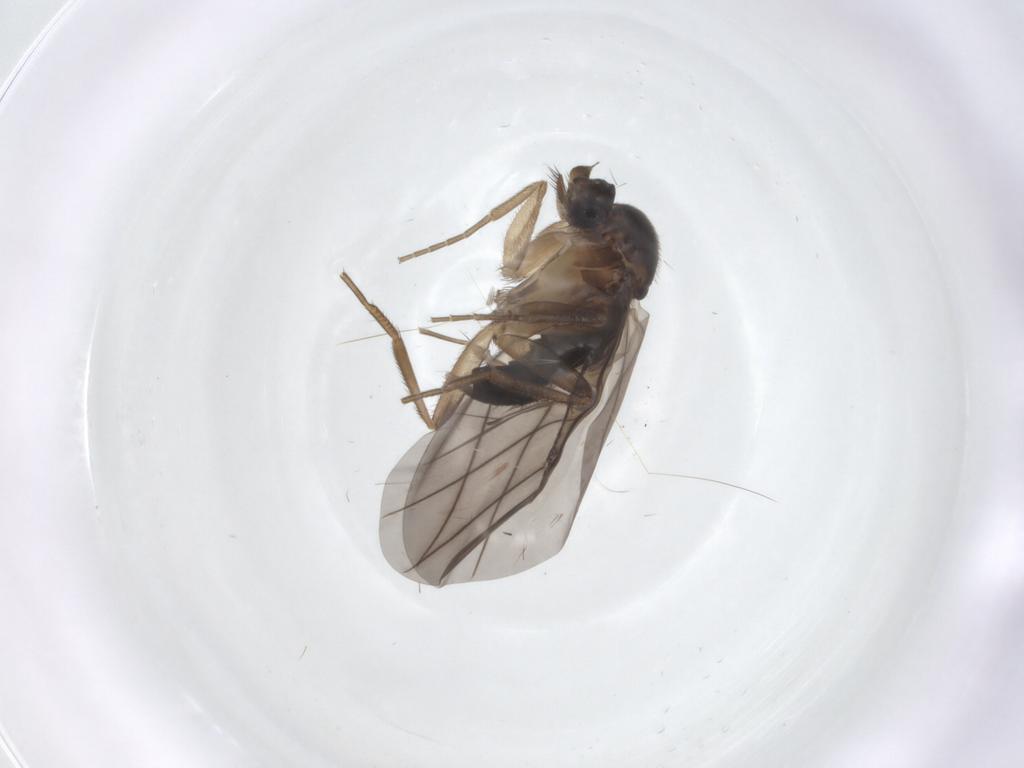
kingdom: Animalia
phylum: Arthropoda
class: Insecta
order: Diptera
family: Phoridae
